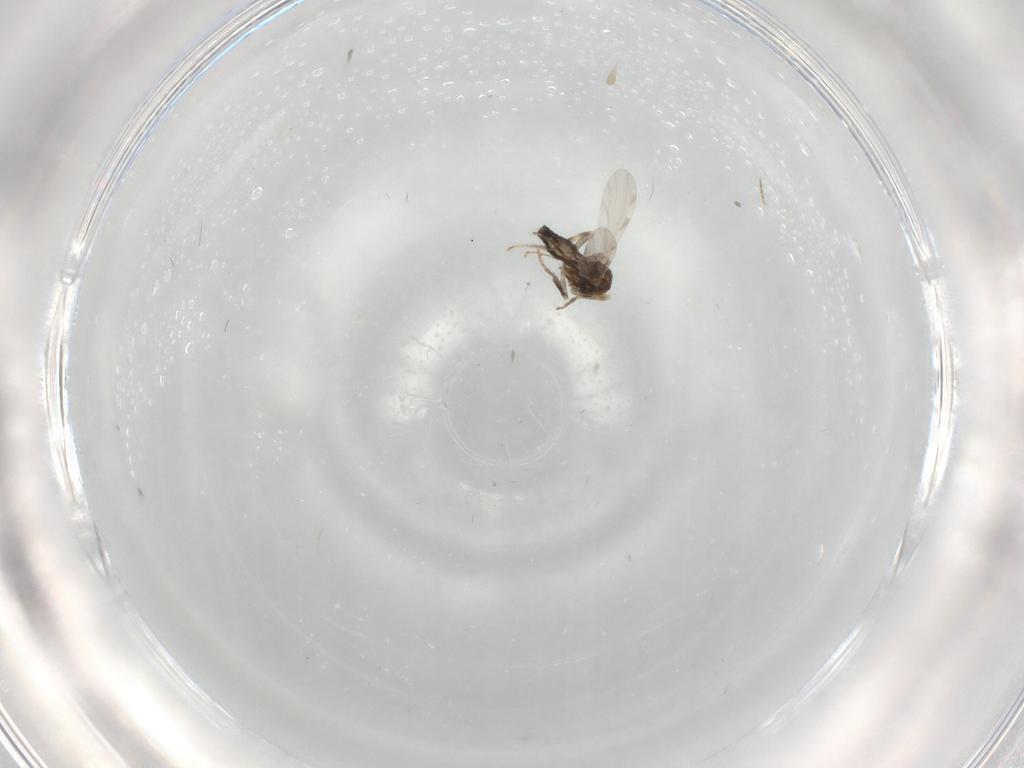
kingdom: Animalia
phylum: Arthropoda
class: Insecta
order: Diptera
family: Ceratopogonidae
